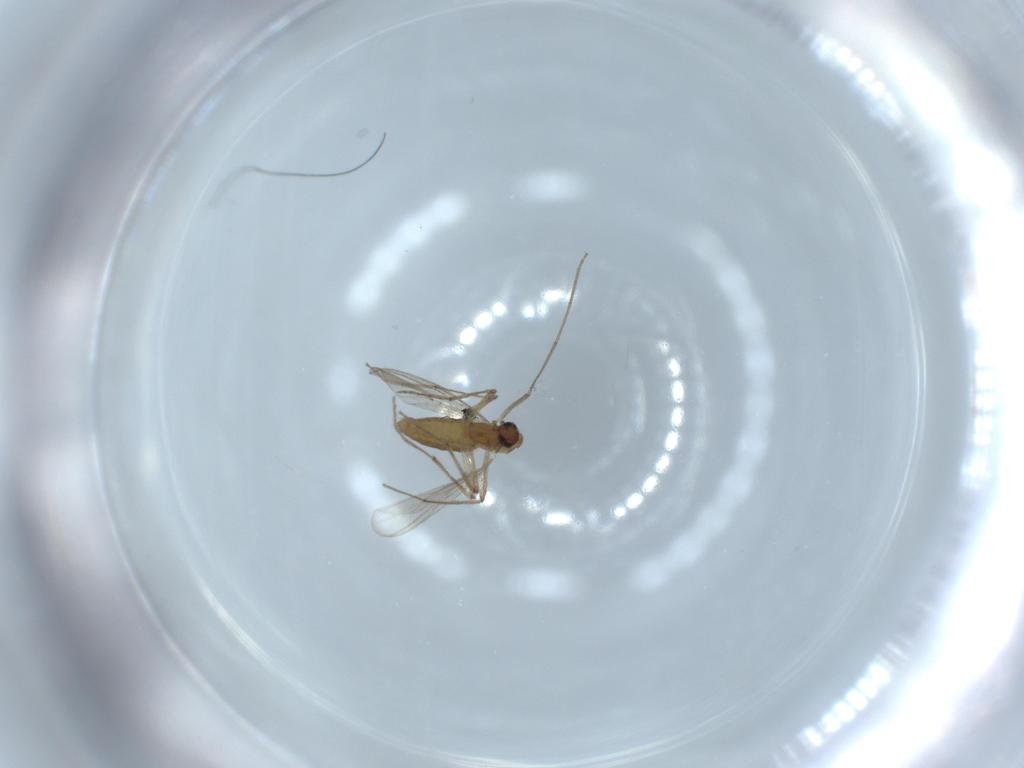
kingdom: Animalia
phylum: Arthropoda
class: Insecta
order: Diptera
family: Chironomidae
